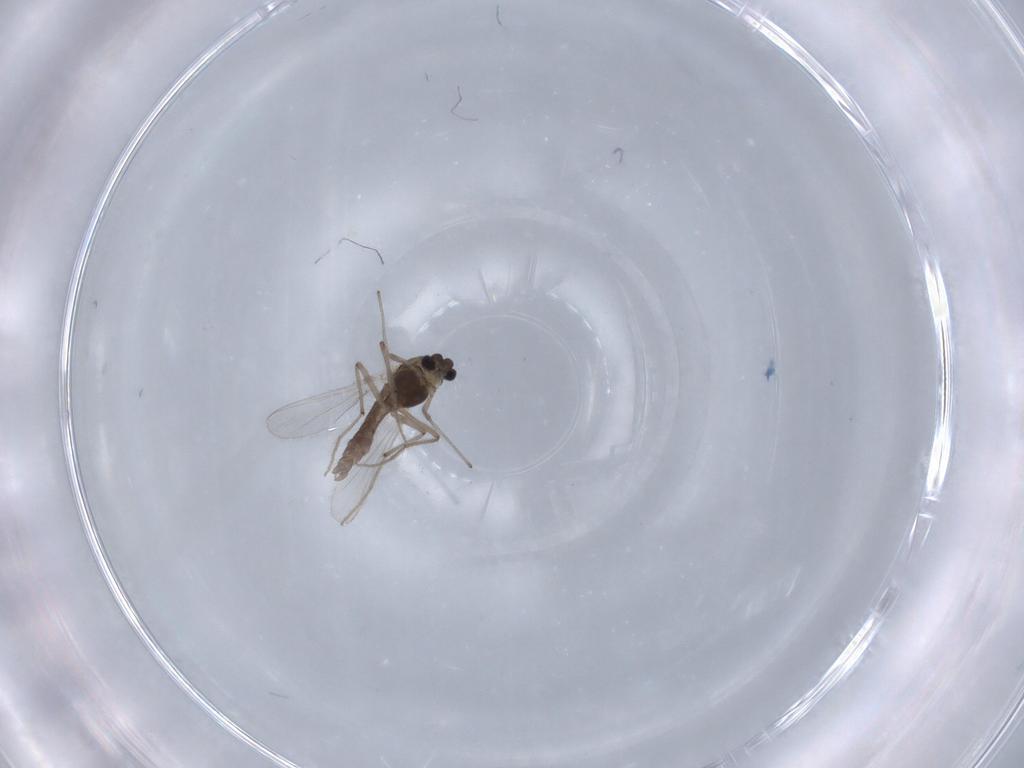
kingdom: Animalia
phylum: Arthropoda
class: Insecta
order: Diptera
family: Chironomidae
